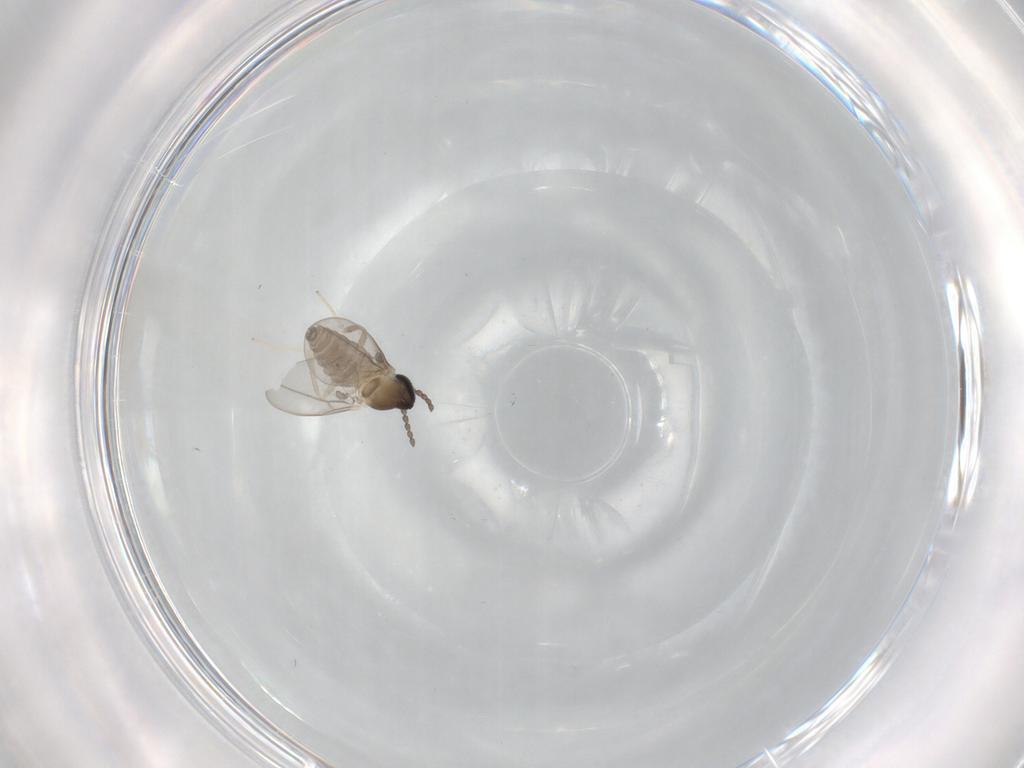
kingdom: Animalia
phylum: Arthropoda
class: Insecta
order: Diptera
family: Cecidomyiidae
